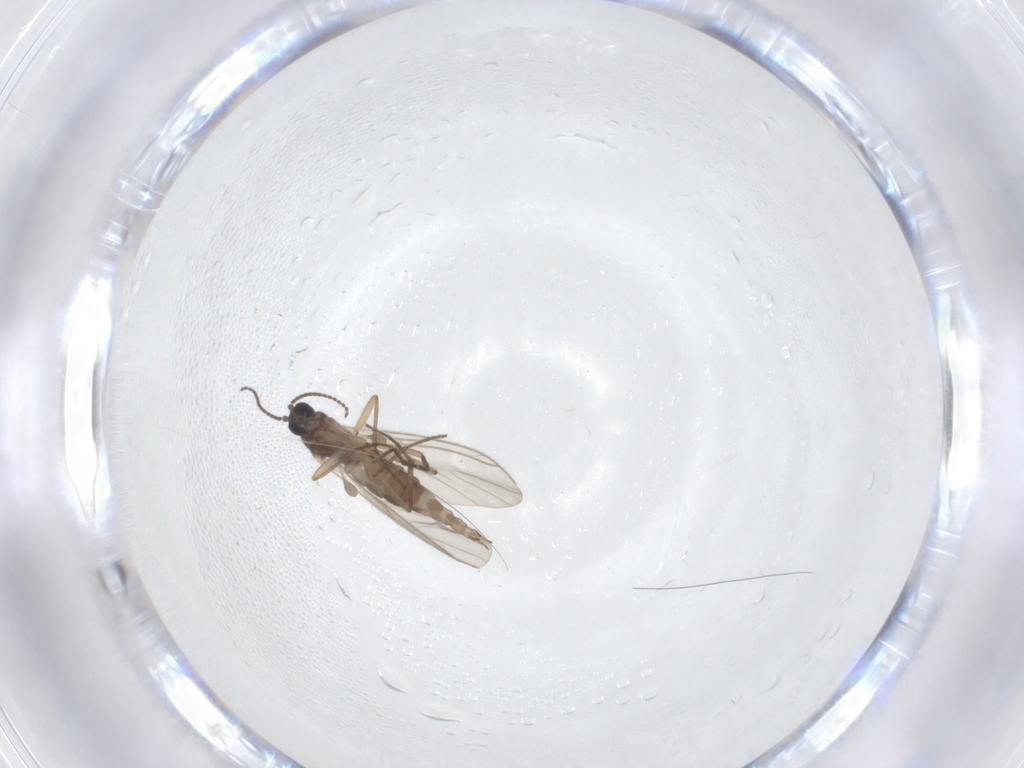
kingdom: Animalia
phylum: Arthropoda
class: Insecta
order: Diptera
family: Sciaridae
